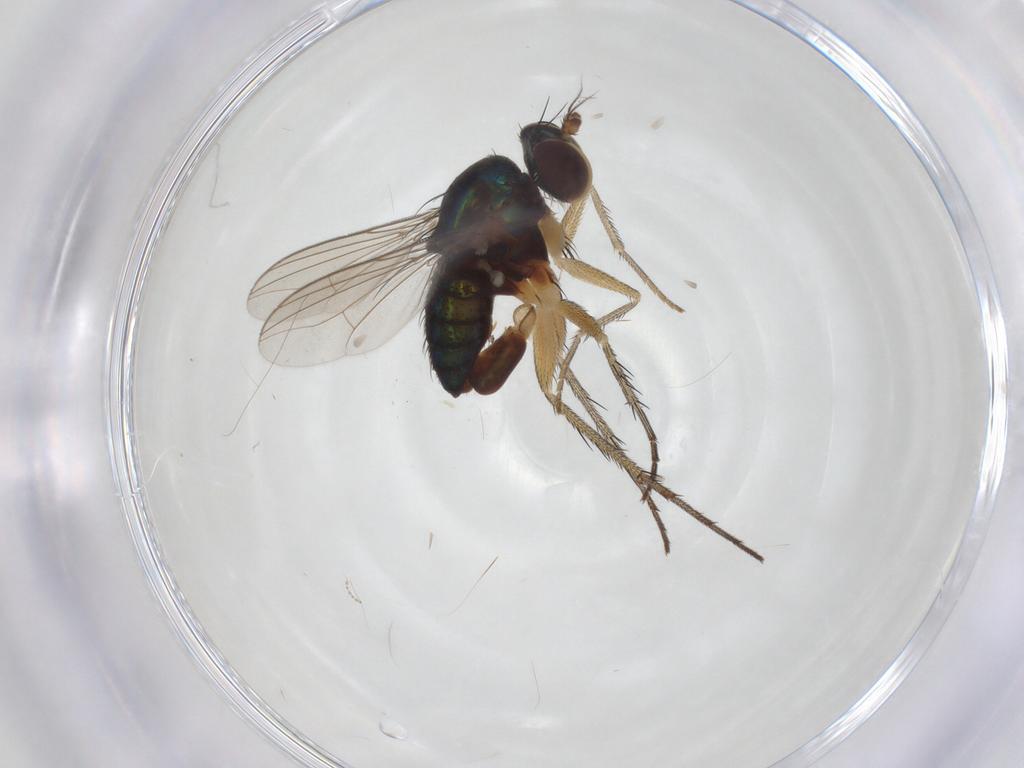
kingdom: Animalia
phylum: Arthropoda
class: Insecta
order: Diptera
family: Dolichopodidae
